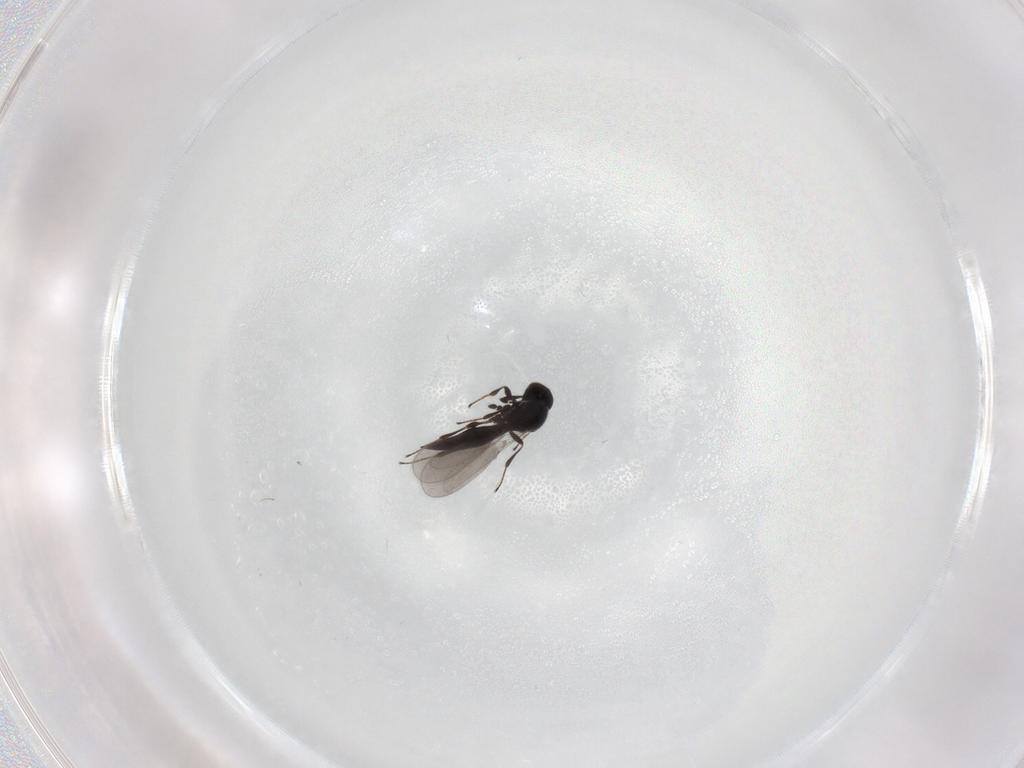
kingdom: Animalia
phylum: Arthropoda
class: Insecta
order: Hymenoptera
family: Platygastridae
